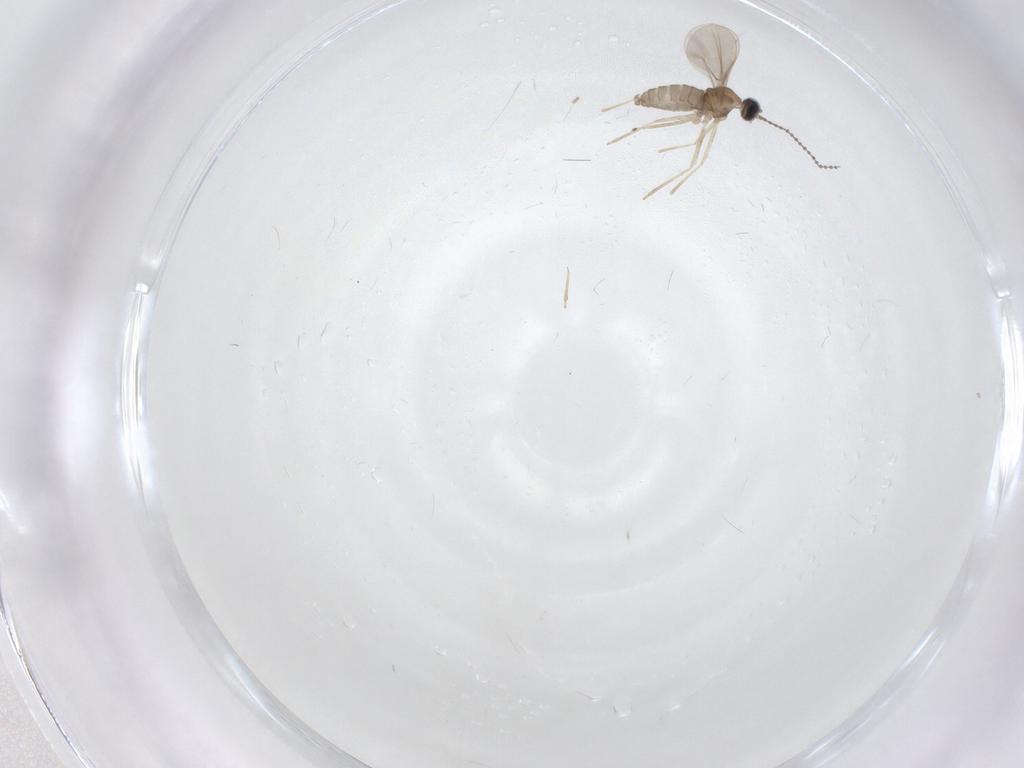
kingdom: Animalia
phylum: Arthropoda
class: Insecta
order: Diptera
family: Cecidomyiidae
